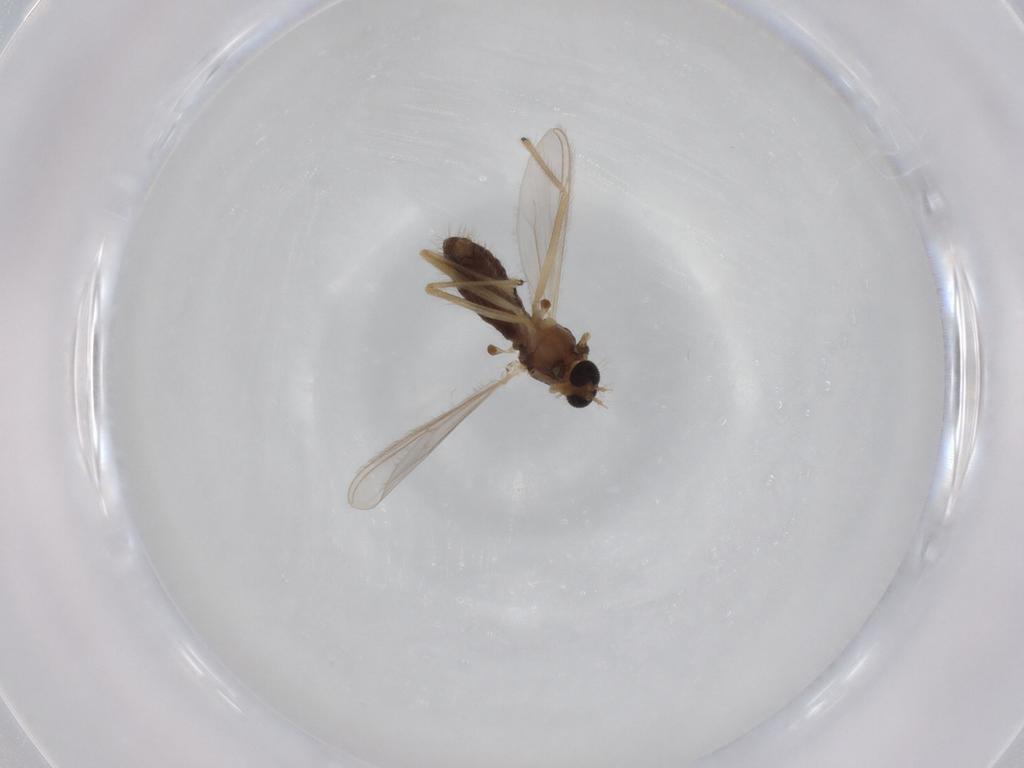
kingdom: Animalia
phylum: Arthropoda
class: Insecta
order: Diptera
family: Chironomidae
